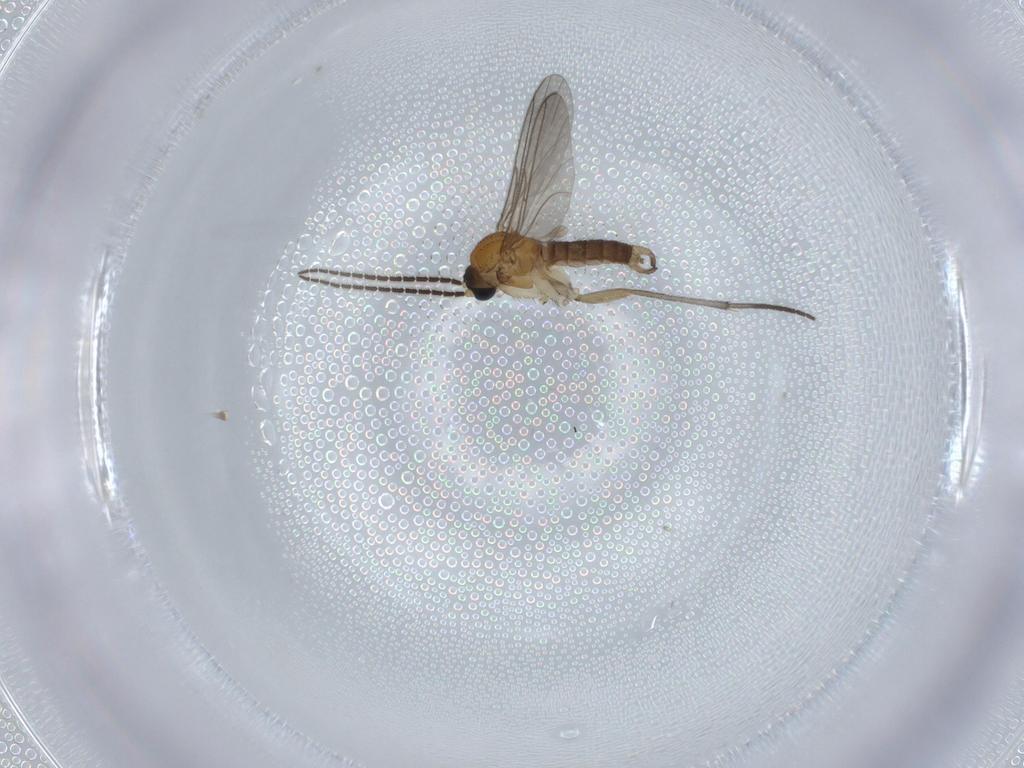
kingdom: Animalia
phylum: Arthropoda
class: Insecta
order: Diptera
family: Sciaridae
